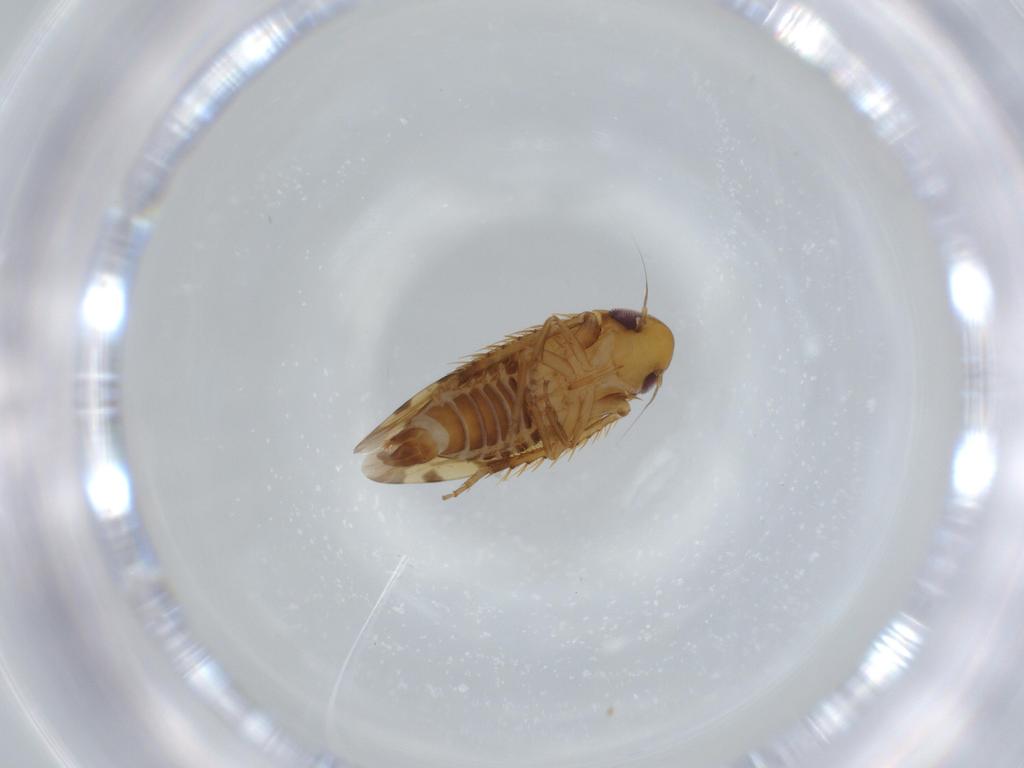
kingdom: Animalia
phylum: Arthropoda
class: Insecta
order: Hemiptera
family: Cicadellidae
